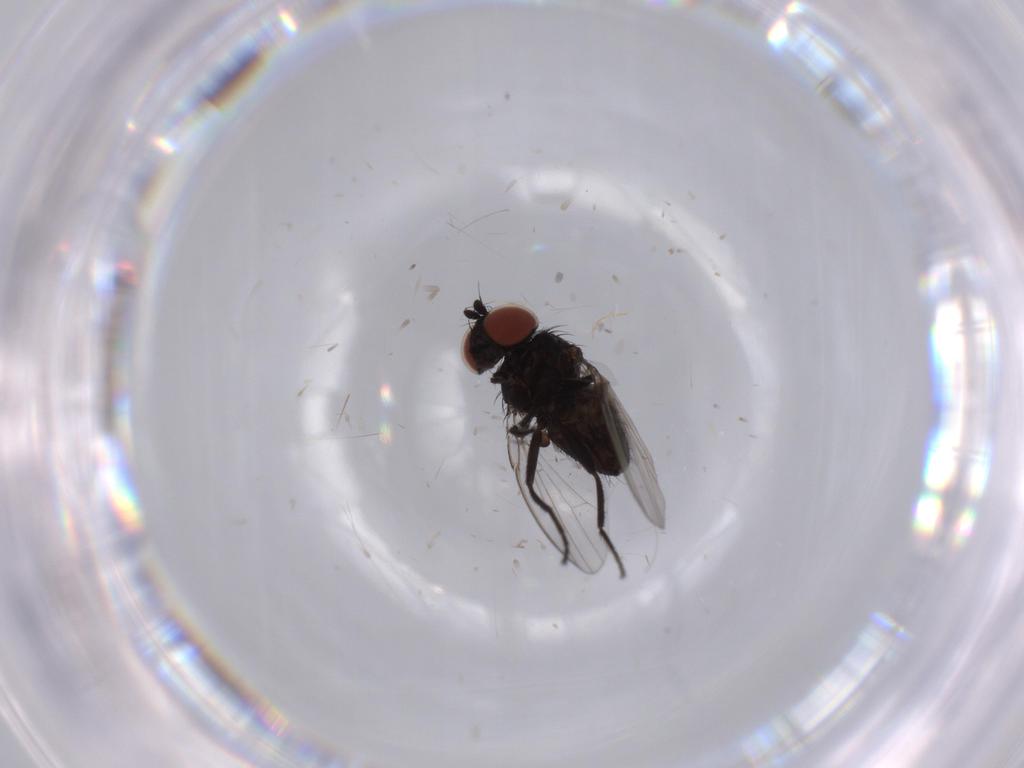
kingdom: Animalia
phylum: Arthropoda
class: Insecta
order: Diptera
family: Ceratopogonidae
